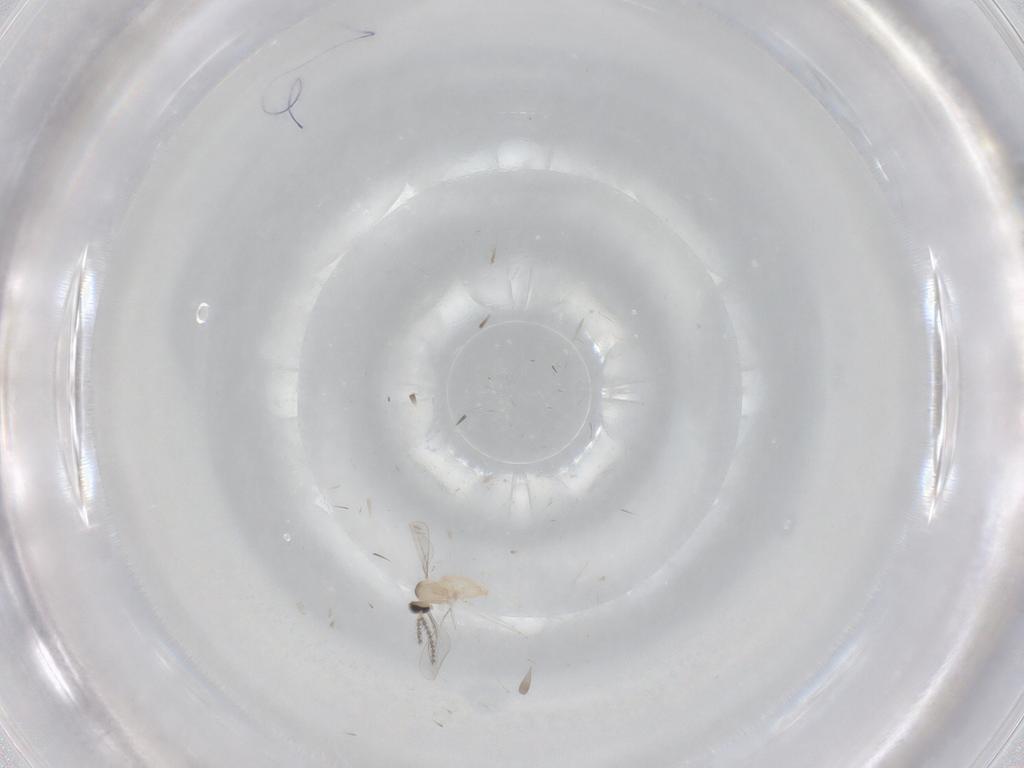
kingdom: Animalia
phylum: Arthropoda
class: Insecta
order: Diptera
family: Cecidomyiidae
